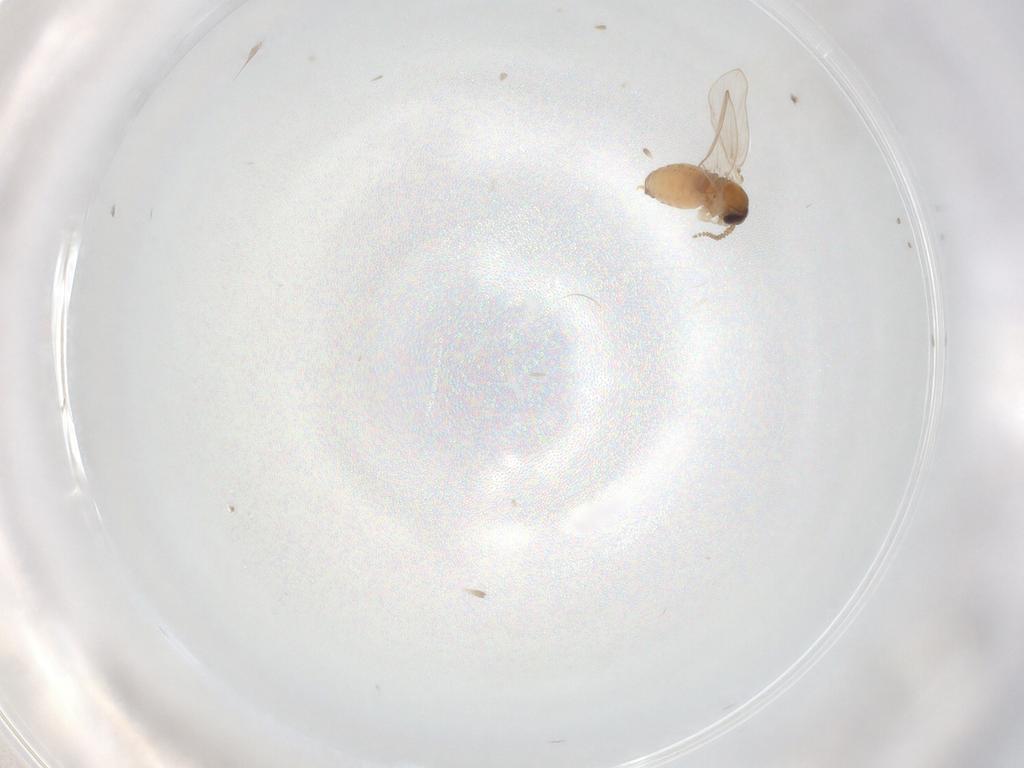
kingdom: Animalia
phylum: Arthropoda
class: Insecta
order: Diptera
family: Psychodidae
